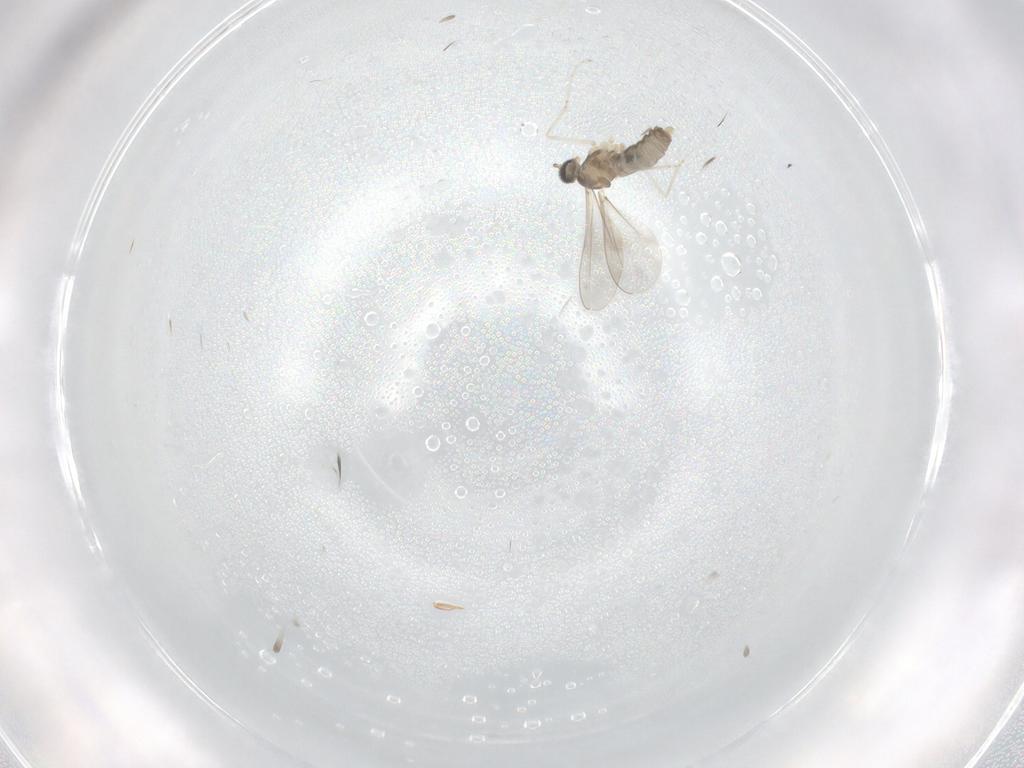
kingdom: Animalia
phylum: Arthropoda
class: Insecta
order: Diptera
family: Cecidomyiidae
